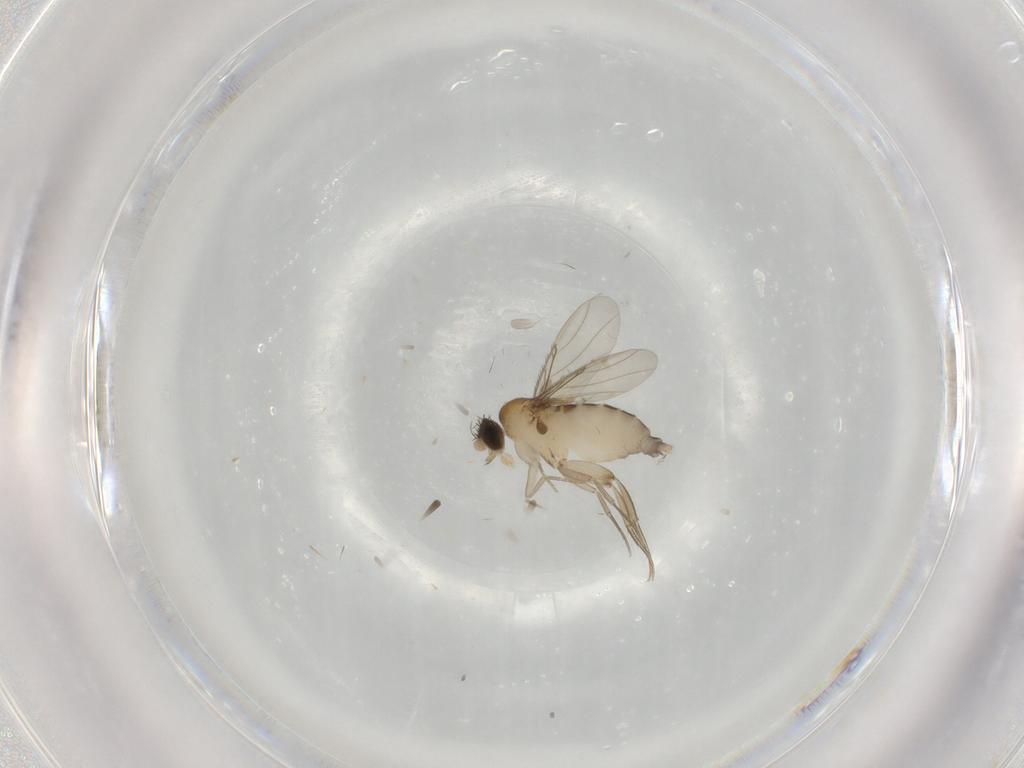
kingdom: Animalia
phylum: Arthropoda
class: Insecta
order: Diptera
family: Phoridae
